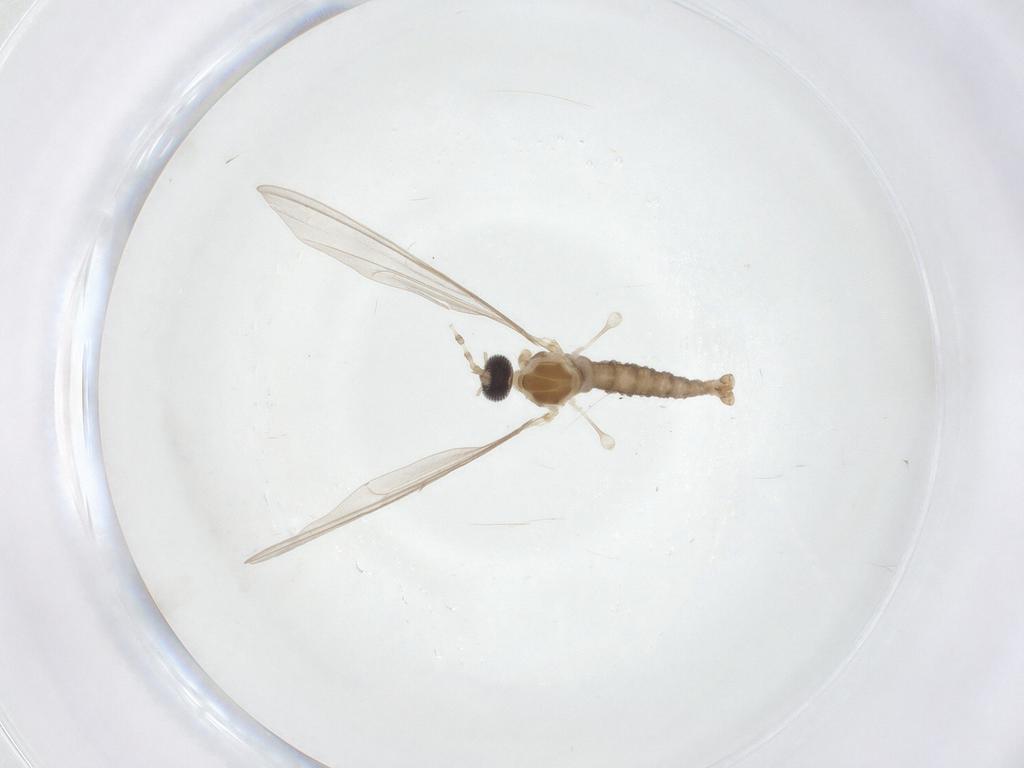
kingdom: Animalia
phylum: Arthropoda
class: Insecta
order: Diptera
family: Cecidomyiidae
